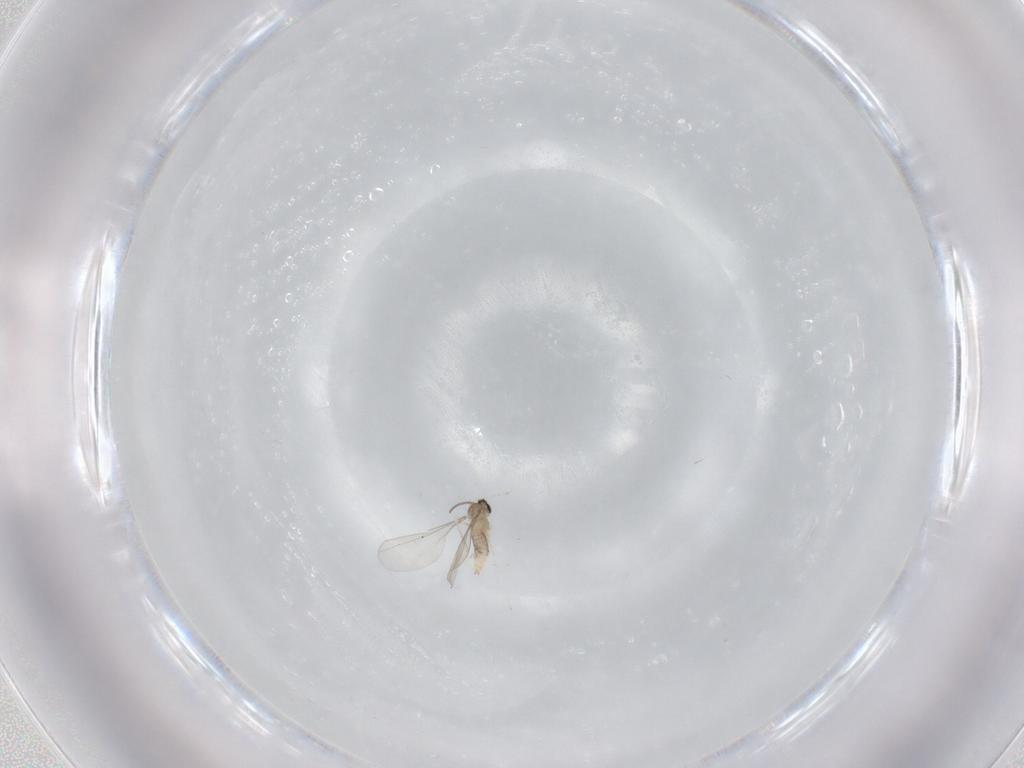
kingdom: Animalia
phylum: Arthropoda
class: Insecta
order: Diptera
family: Cecidomyiidae
